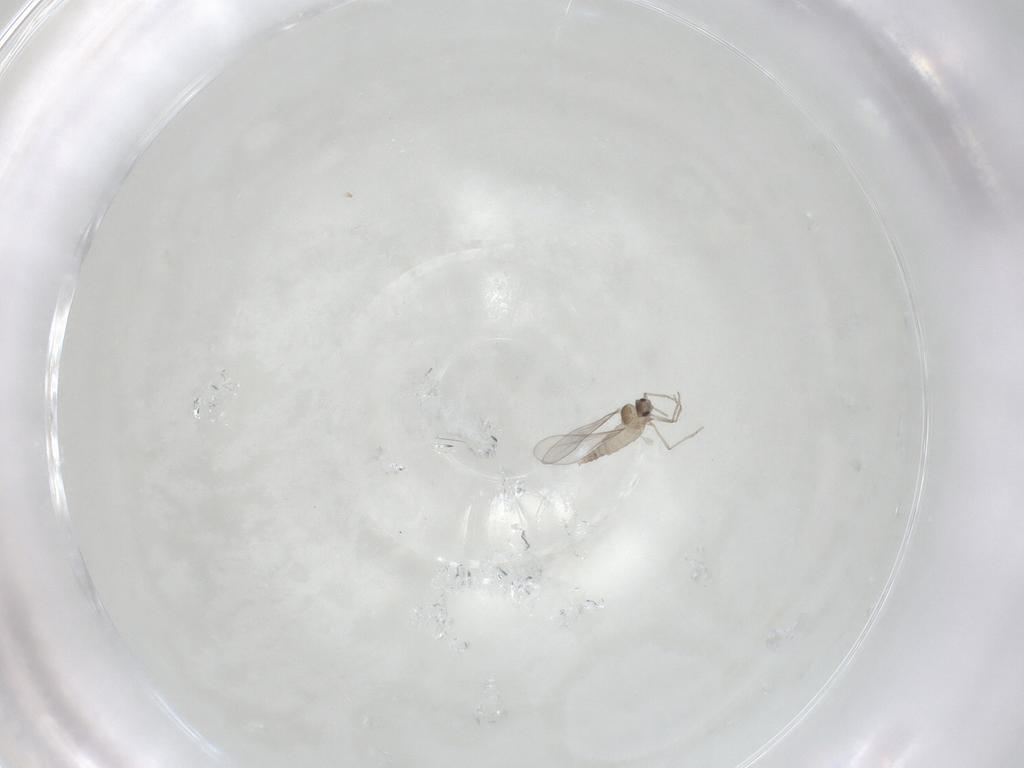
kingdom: Animalia
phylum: Arthropoda
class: Insecta
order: Diptera
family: Cecidomyiidae
